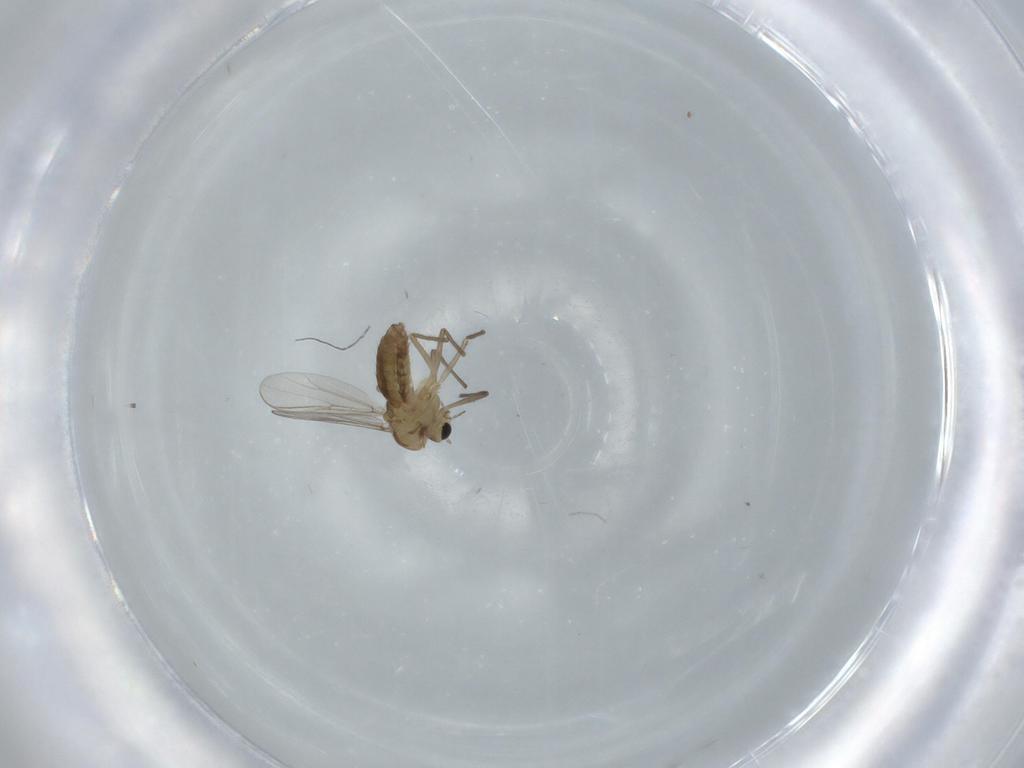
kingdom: Animalia
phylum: Arthropoda
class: Insecta
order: Diptera
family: Chironomidae
